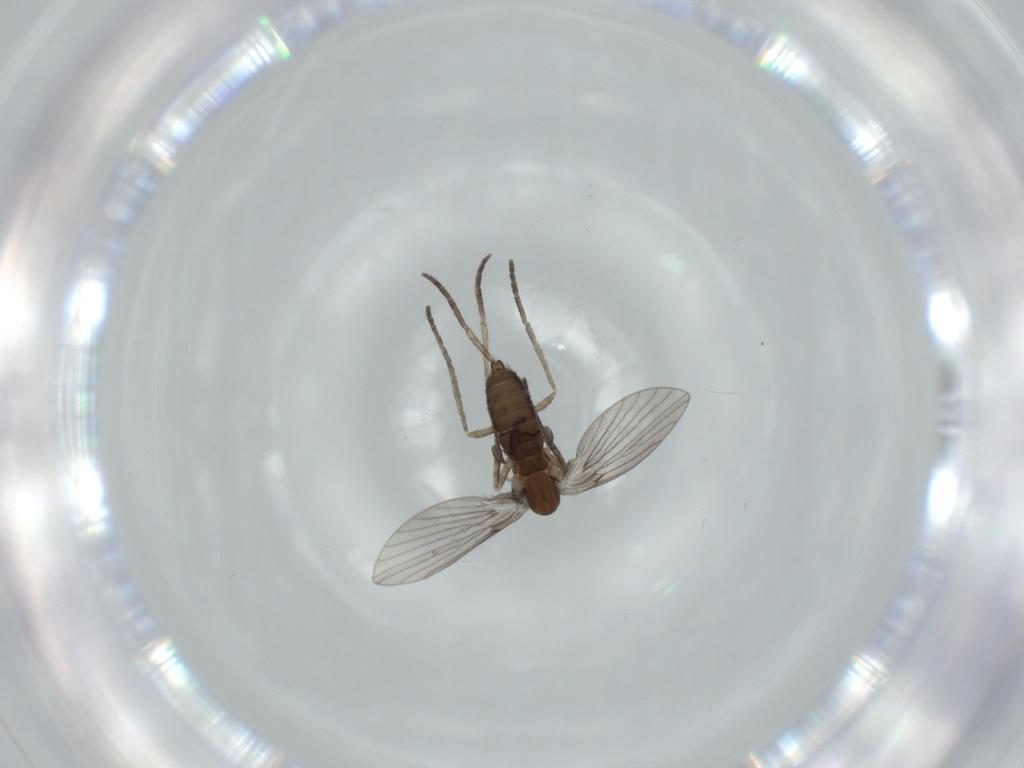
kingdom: Animalia
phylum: Arthropoda
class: Insecta
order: Diptera
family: Psychodidae
